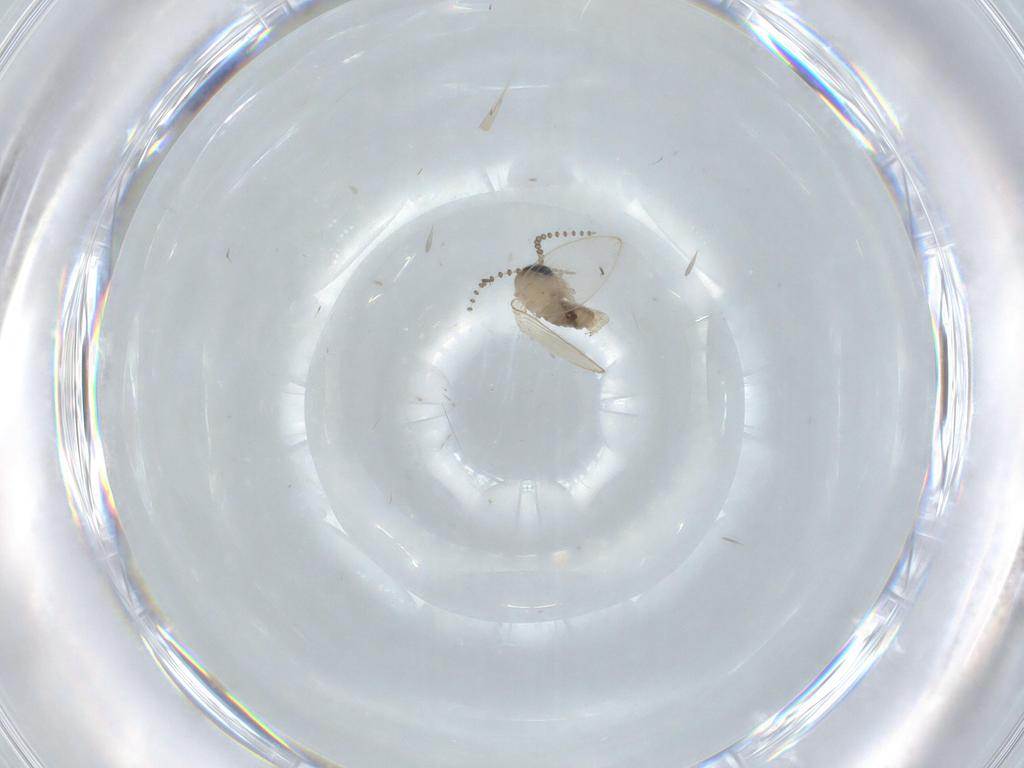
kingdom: Animalia
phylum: Arthropoda
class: Insecta
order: Diptera
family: Psychodidae
